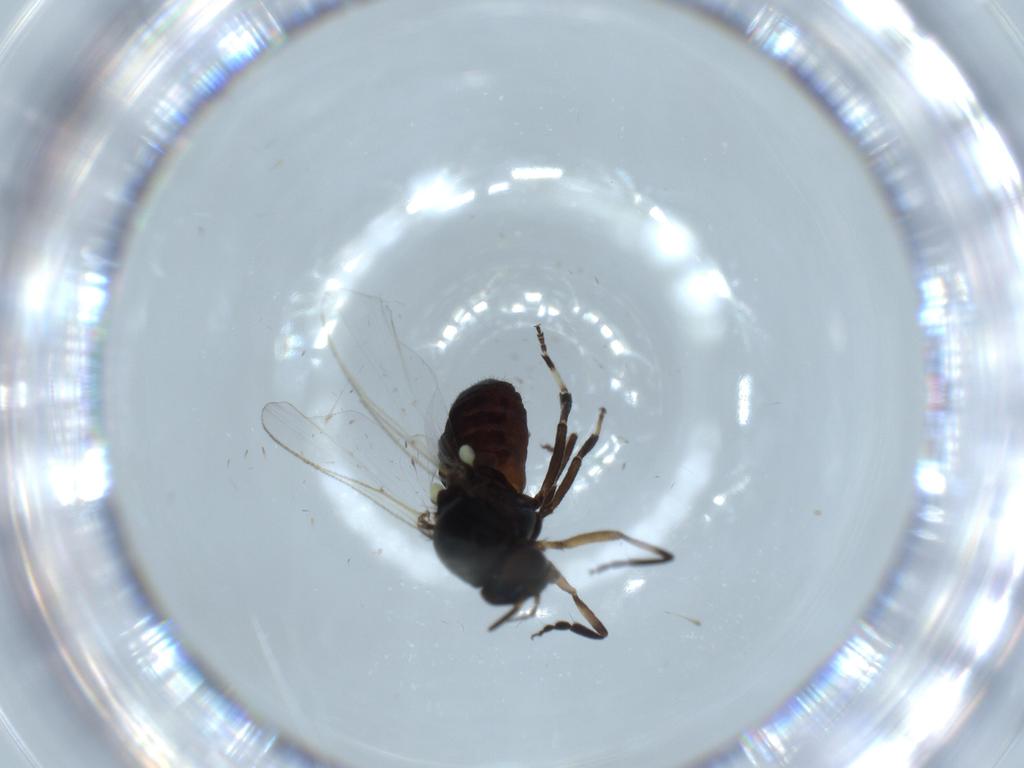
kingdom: Animalia
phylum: Arthropoda
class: Insecta
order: Diptera
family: Simuliidae
